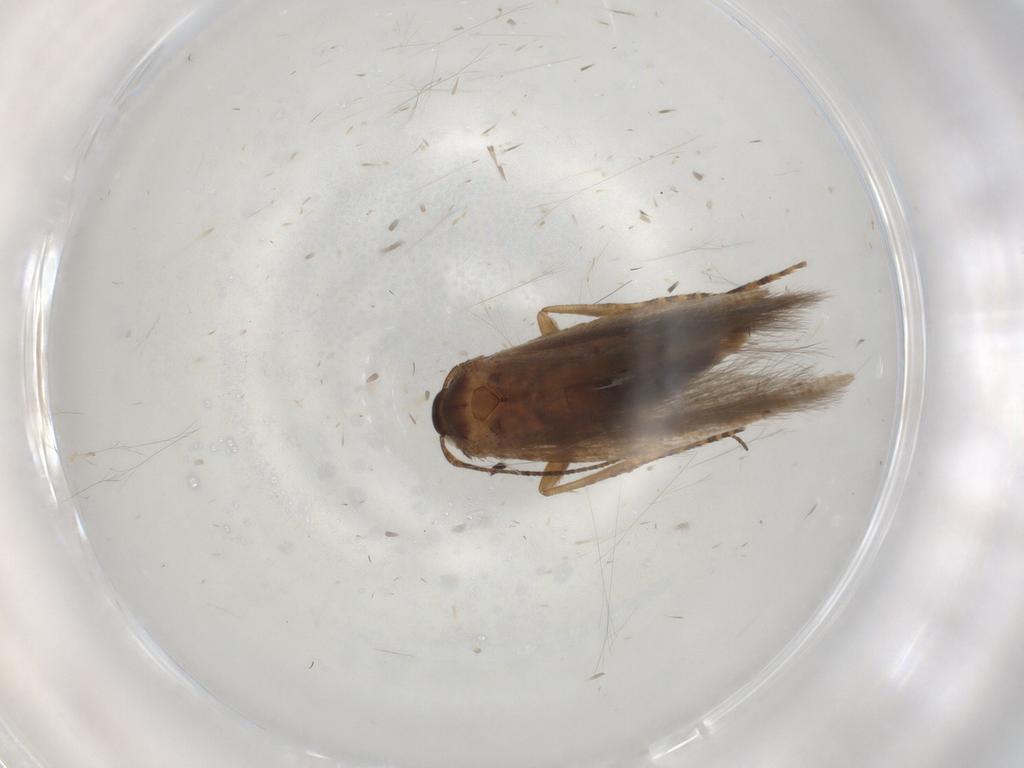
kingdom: Animalia
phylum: Arthropoda
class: Insecta
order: Lepidoptera
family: Gelechiidae
